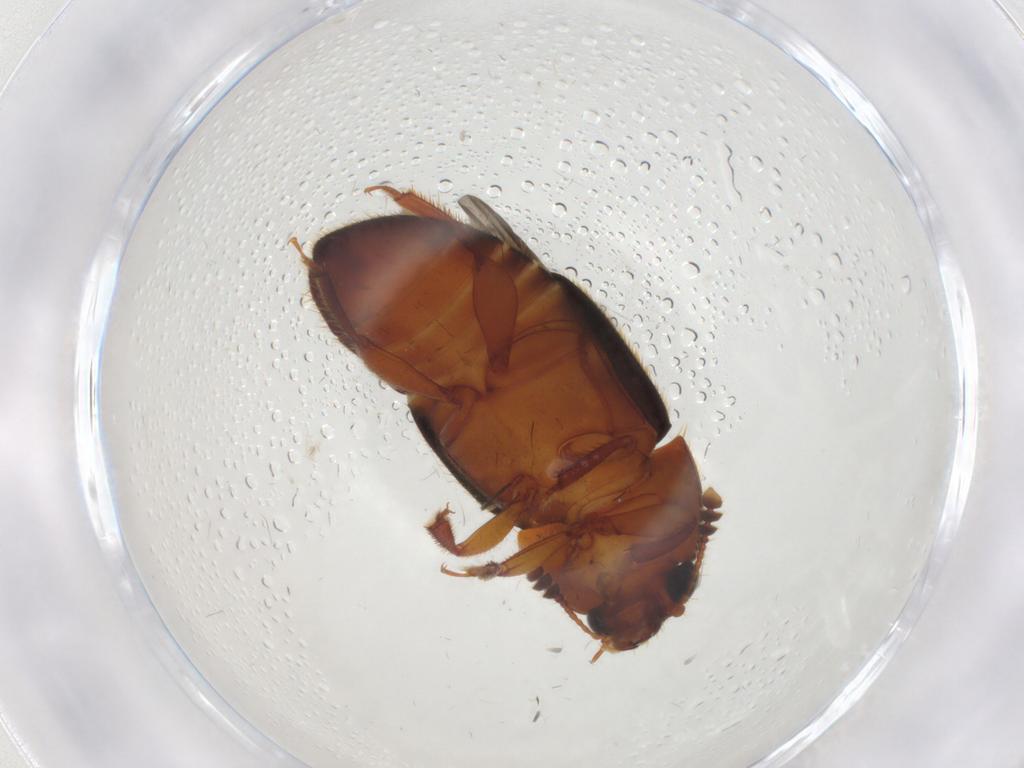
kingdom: Animalia
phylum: Arthropoda
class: Insecta
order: Coleoptera
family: Nitidulidae
